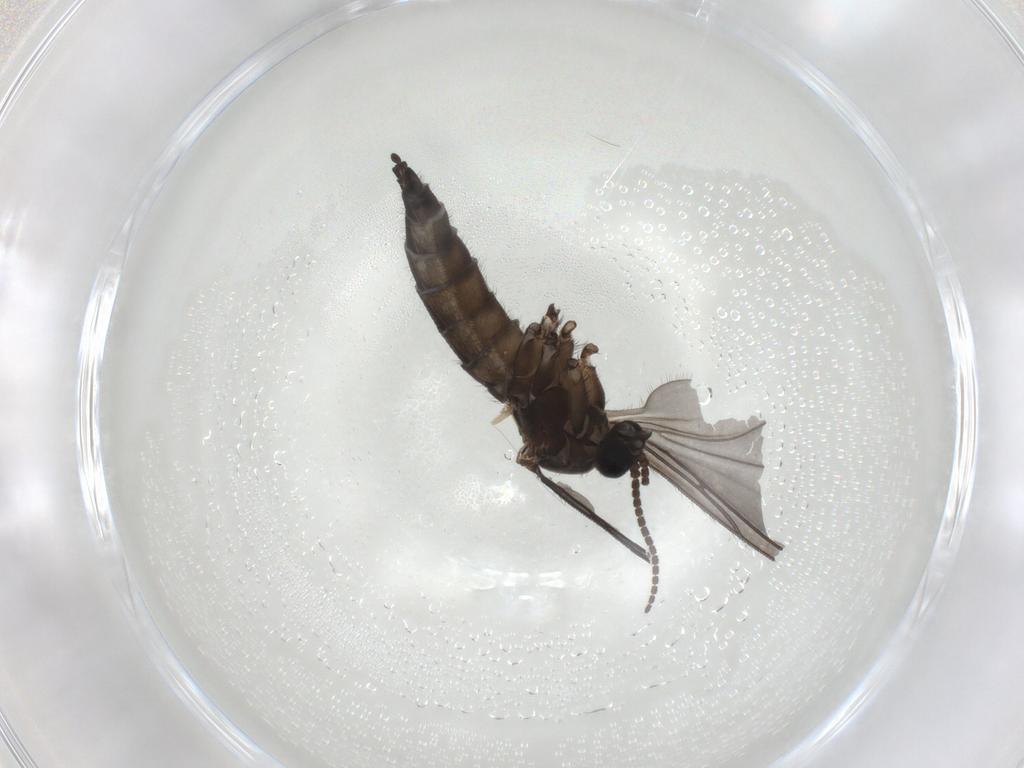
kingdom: Animalia
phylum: Arthropoda
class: Insecta
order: Diptera
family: Sciaridae
